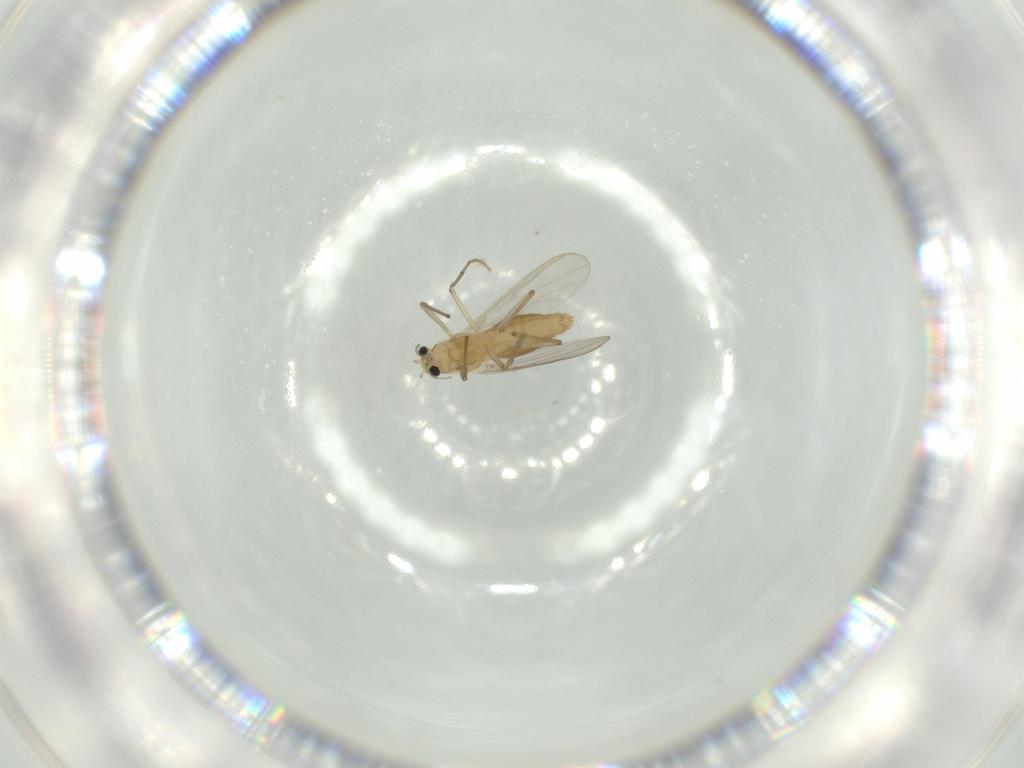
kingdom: Animalia
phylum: Arthropoda
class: Insecta
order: Diptera
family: Chironomidae
